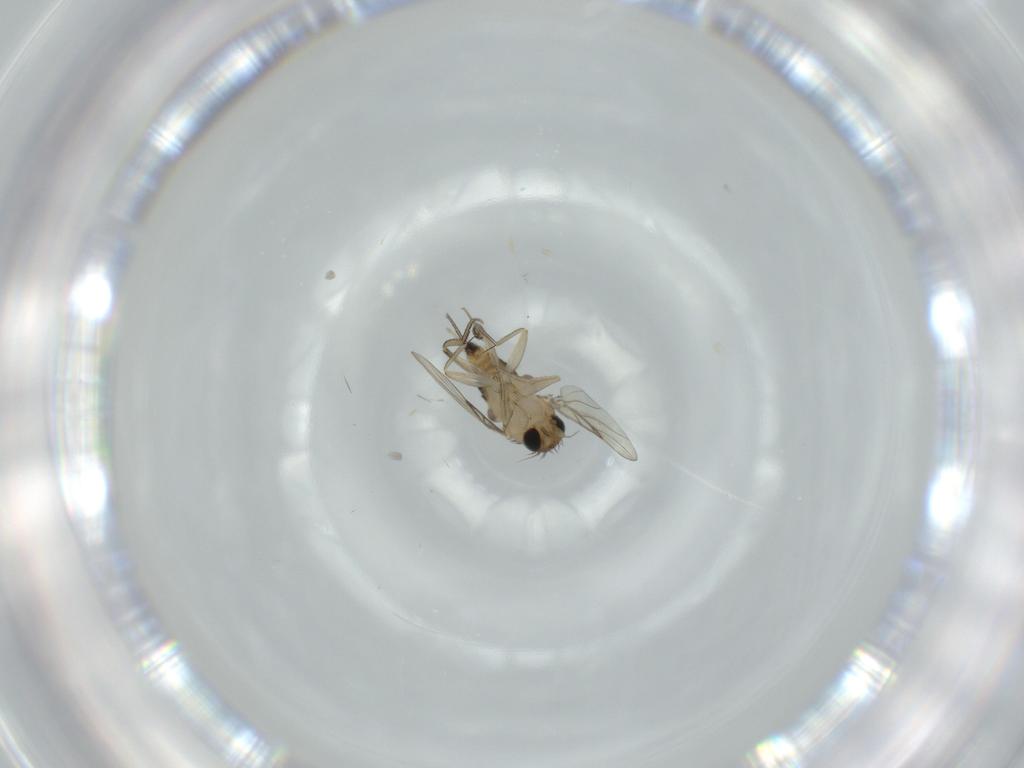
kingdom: Animalia
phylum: Arthropoda
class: Insecta
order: Diptera
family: Phoridae
